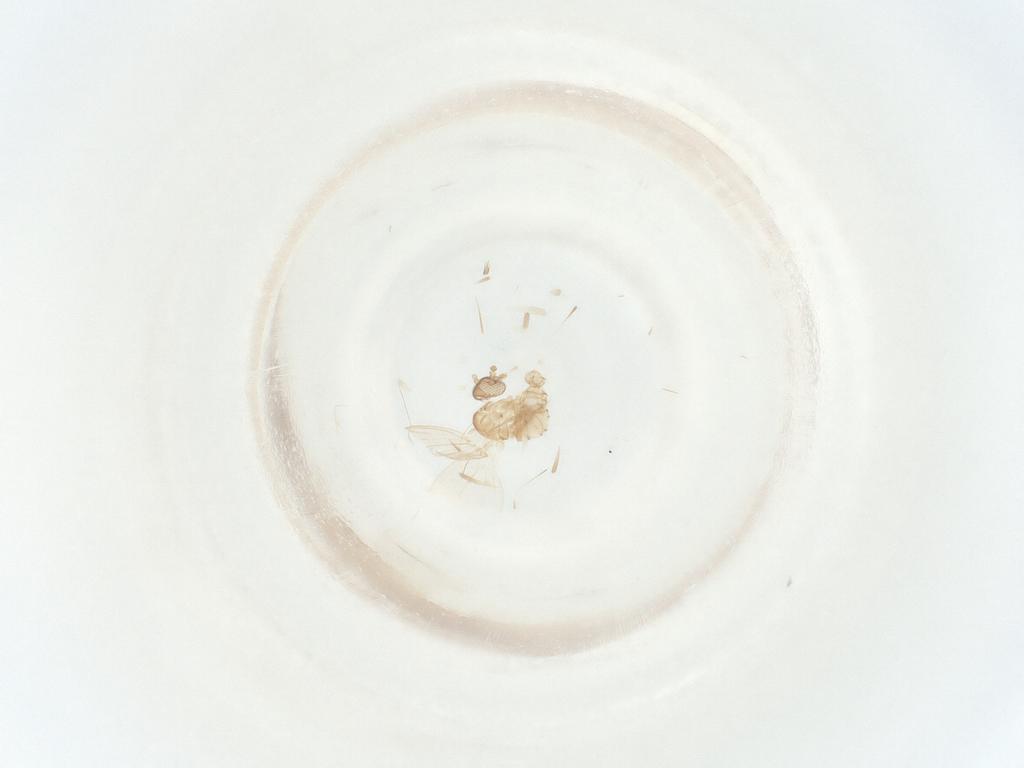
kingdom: Animalia
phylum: Arthropoda
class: Insecta
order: Diptera
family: Psychodidae
